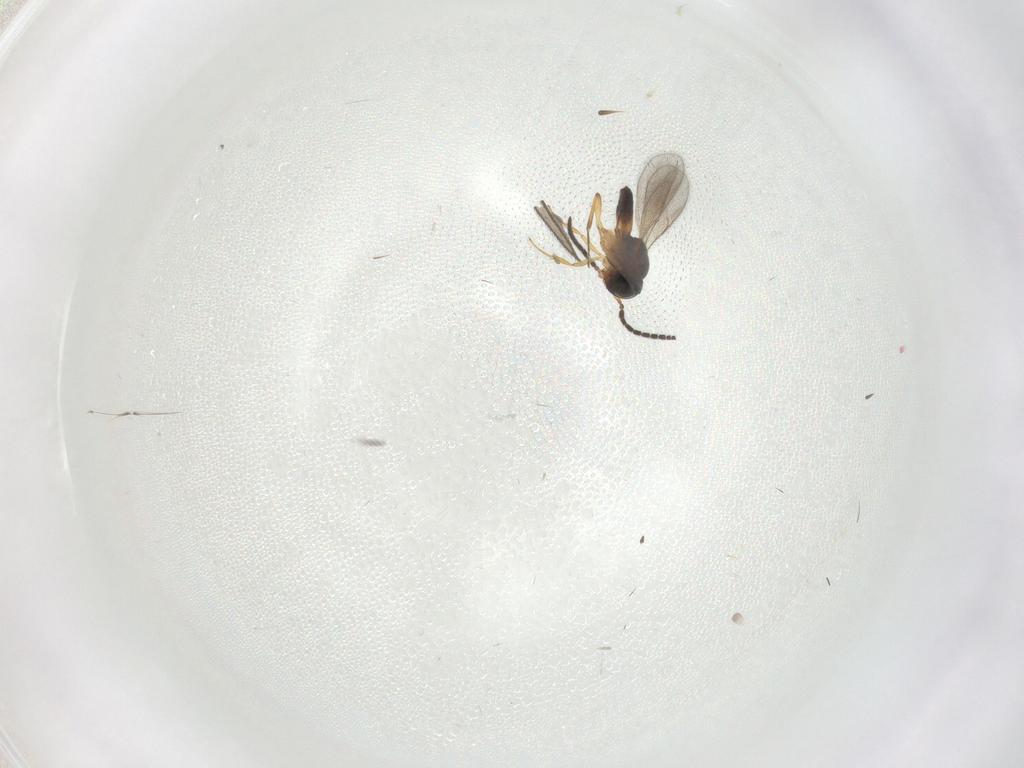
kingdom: Animalia
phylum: Arthropoda
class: Insecta
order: Hymenoptera
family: Scelionidae
